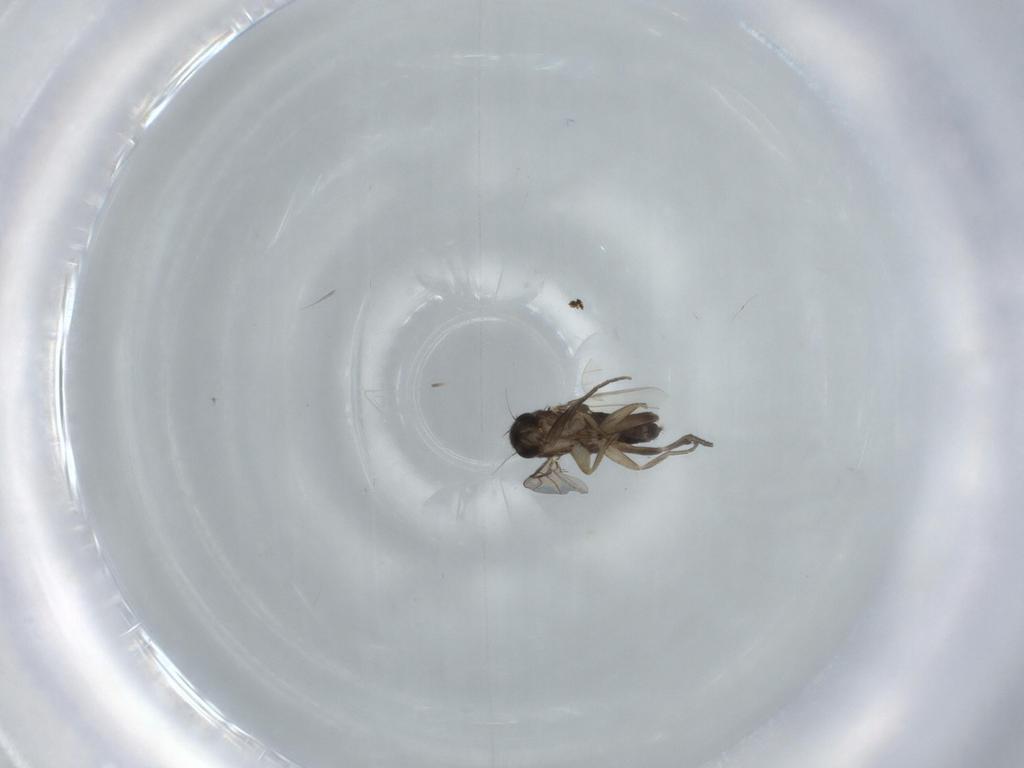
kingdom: Animalia
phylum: Arthropoda
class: Insecta
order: Diptera
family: Phoridae
